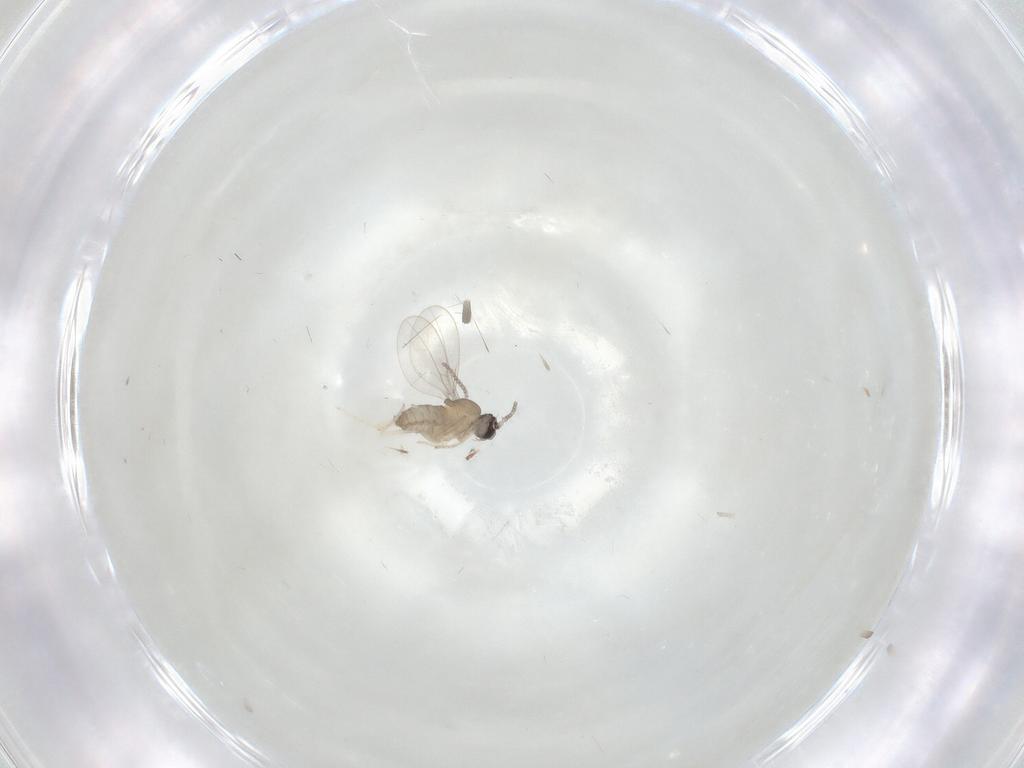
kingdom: Animalia
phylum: Arthropoda
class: Insecta
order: Diptera
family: Cecidomyiidae
